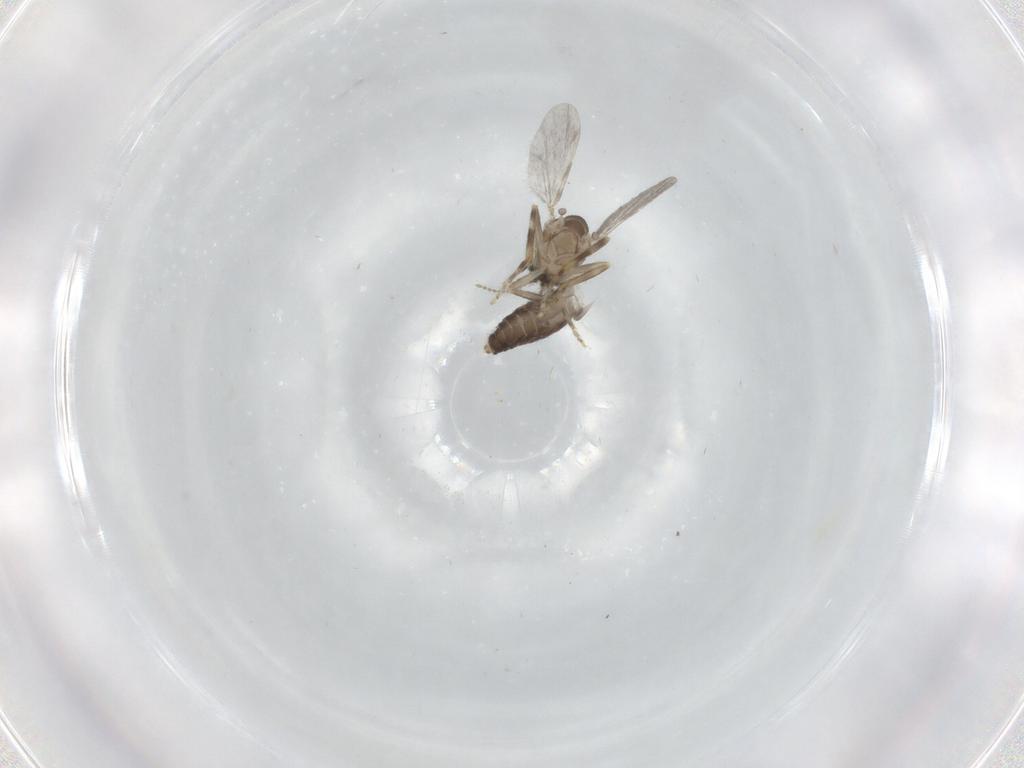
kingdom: Animalia
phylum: Arthropoda
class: Insecta
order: Diptera
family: Ceratopogonidae
